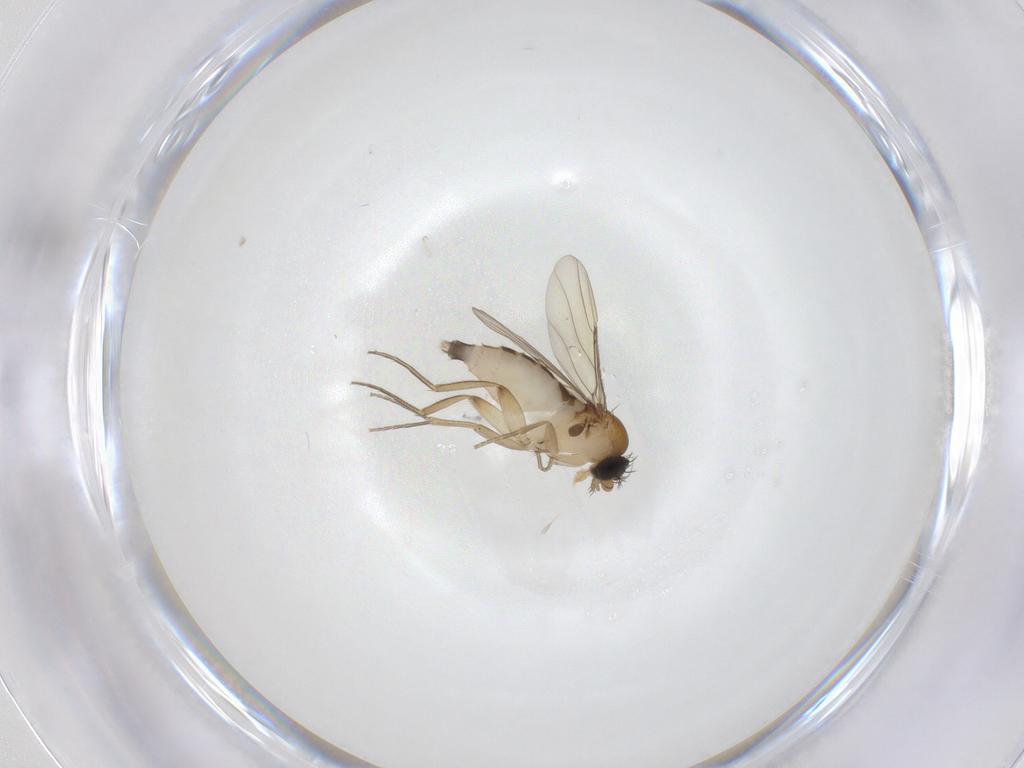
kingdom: Animalia
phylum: Arthropoda
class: Insecta
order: Diptera
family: Phoridae
